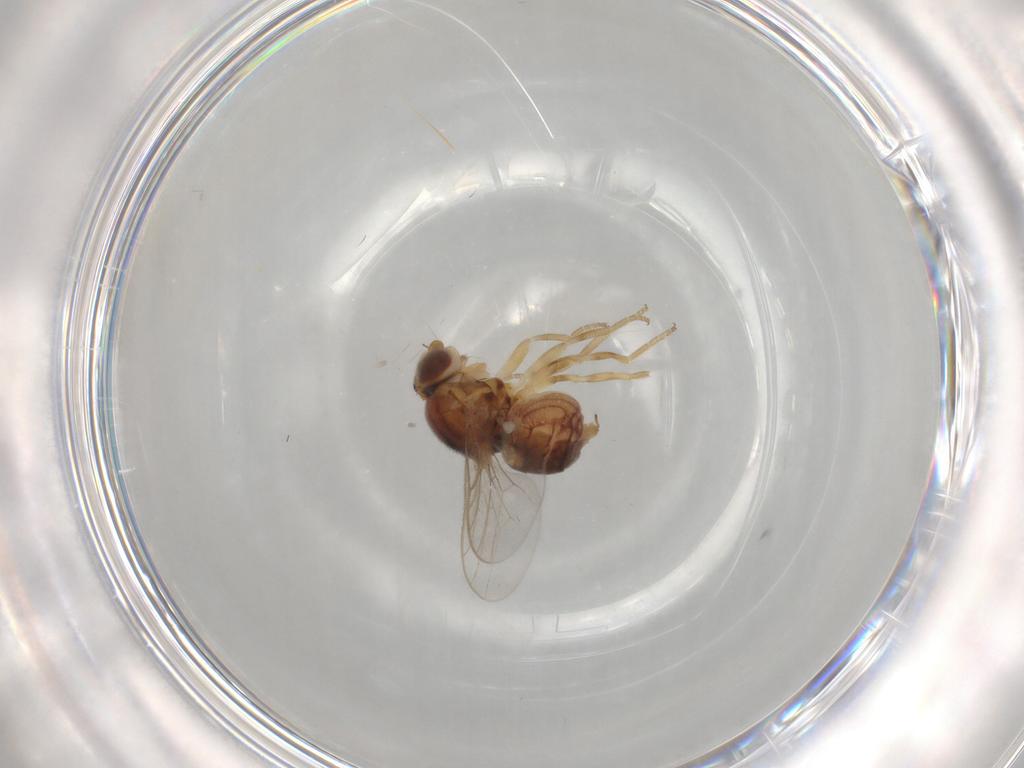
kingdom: Animalia
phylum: Arthropoda
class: Insecta
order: Diptera
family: Chloropidae
